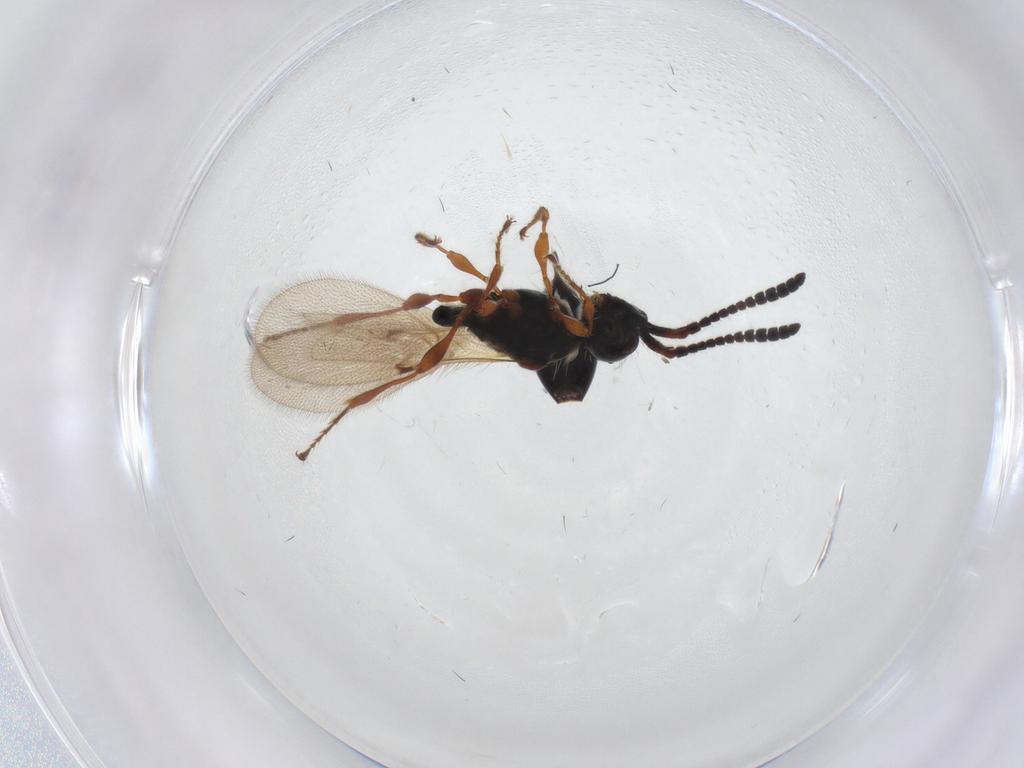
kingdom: Animalia
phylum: Arthropoda
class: Insecta
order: Hymenoptera
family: Diapriidae
